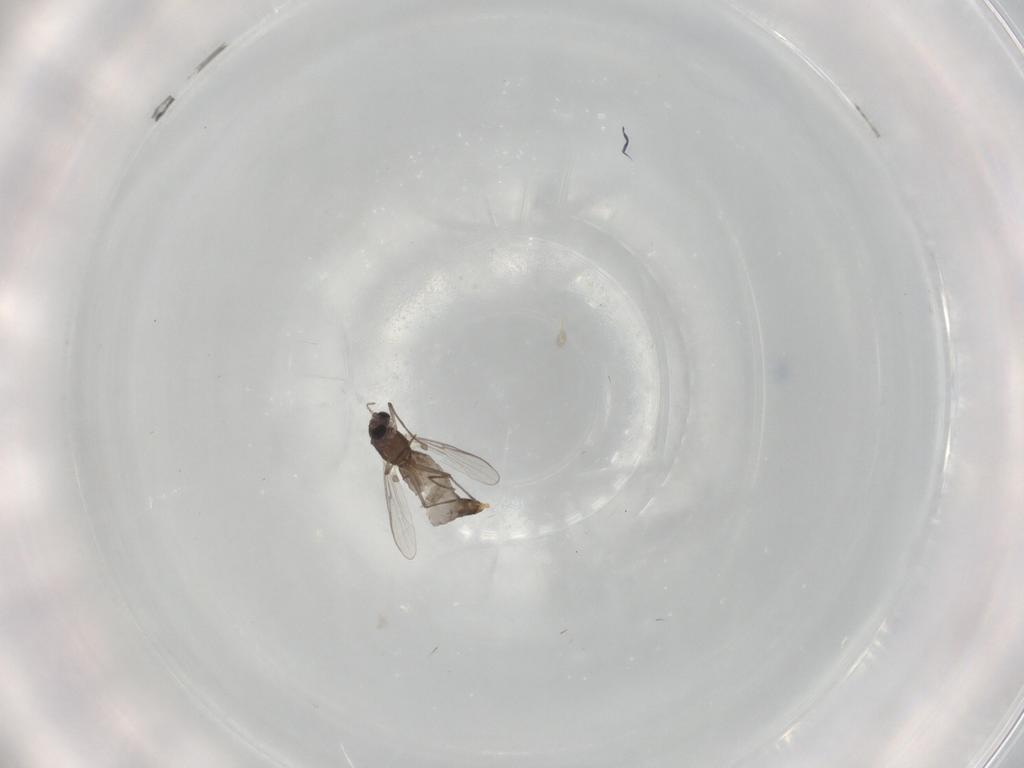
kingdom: Animalia
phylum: Arthropoda
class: Insecta
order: Diptera
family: Chironomidae
